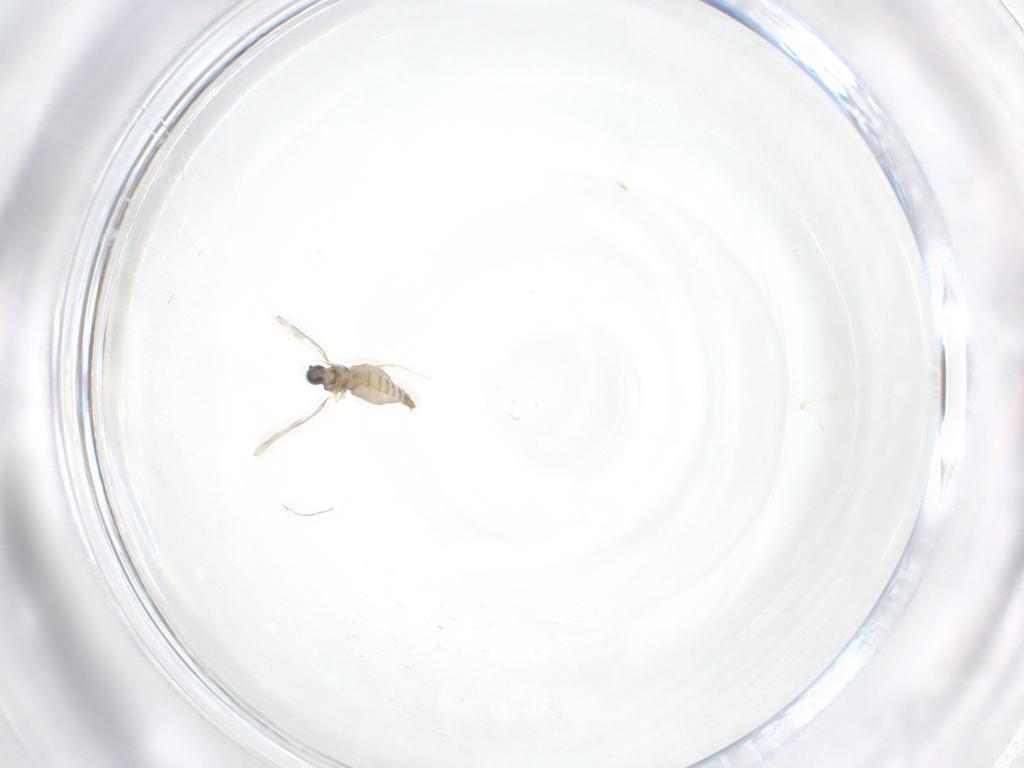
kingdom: Animalia
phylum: Arthropoda
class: Insecta
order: Diptera
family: Cecidomyiidae
